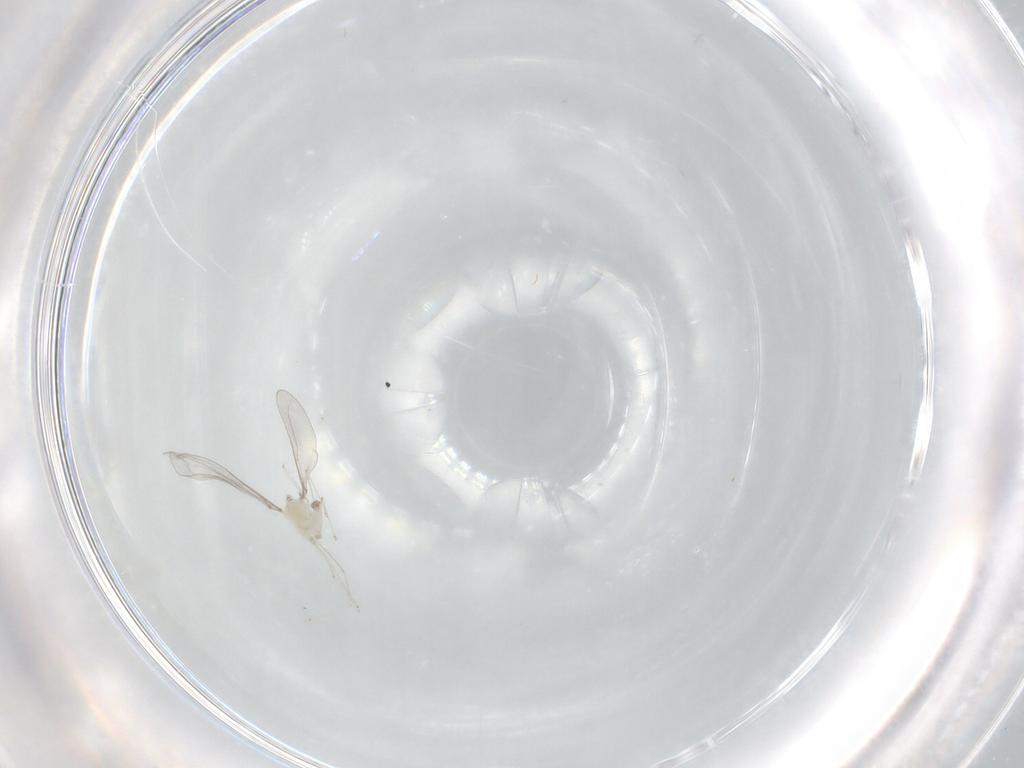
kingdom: Animalia
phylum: Arthropoda
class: Insecta
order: Diptera
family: Cecidomyiidae
